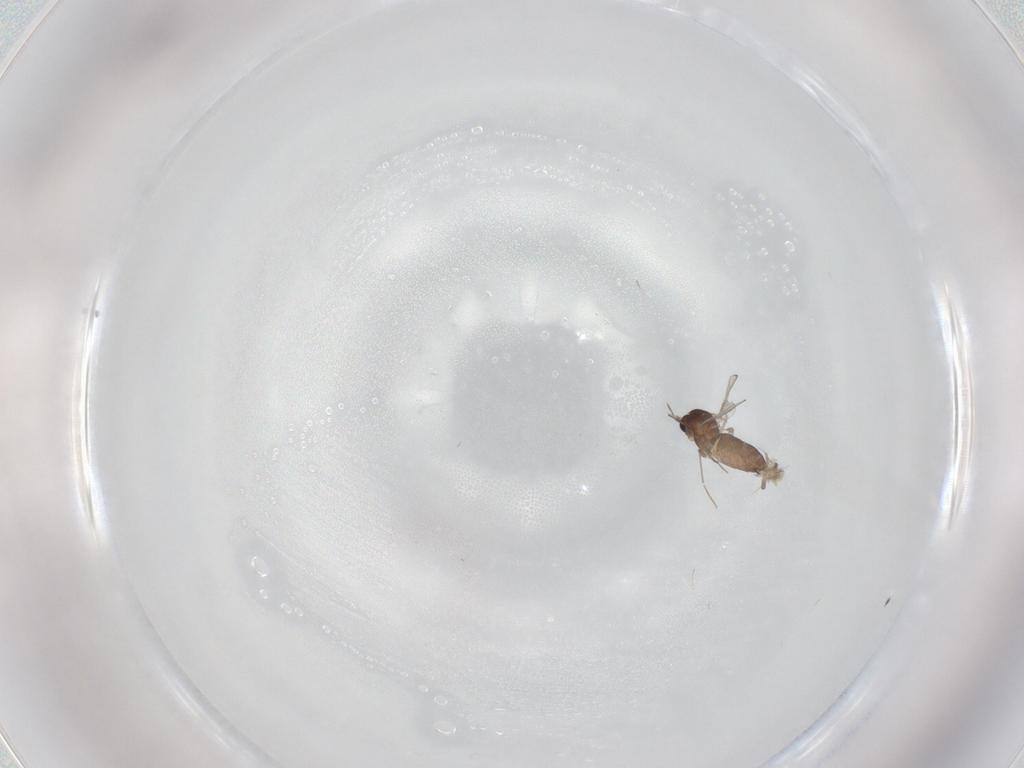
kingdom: Animalia
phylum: Arthropoda
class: Insecta
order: Diptera
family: Chironomidae
